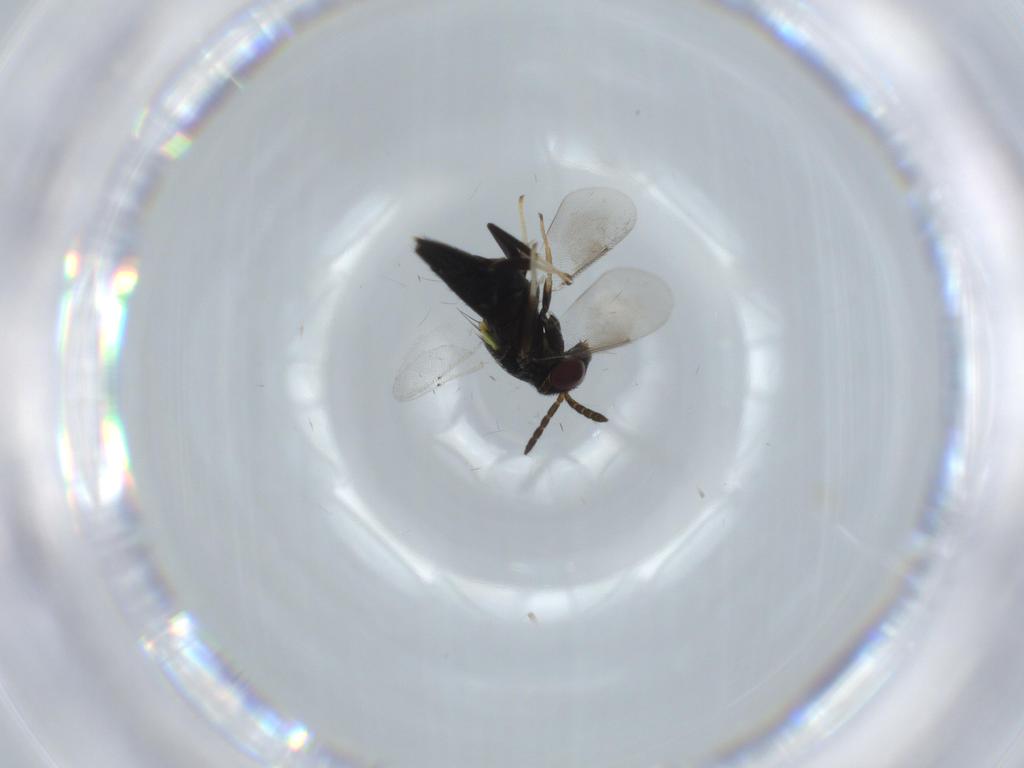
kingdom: Animalia
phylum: Arthropoda
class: Insecta
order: Hymenoptera
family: Aphelinidae
